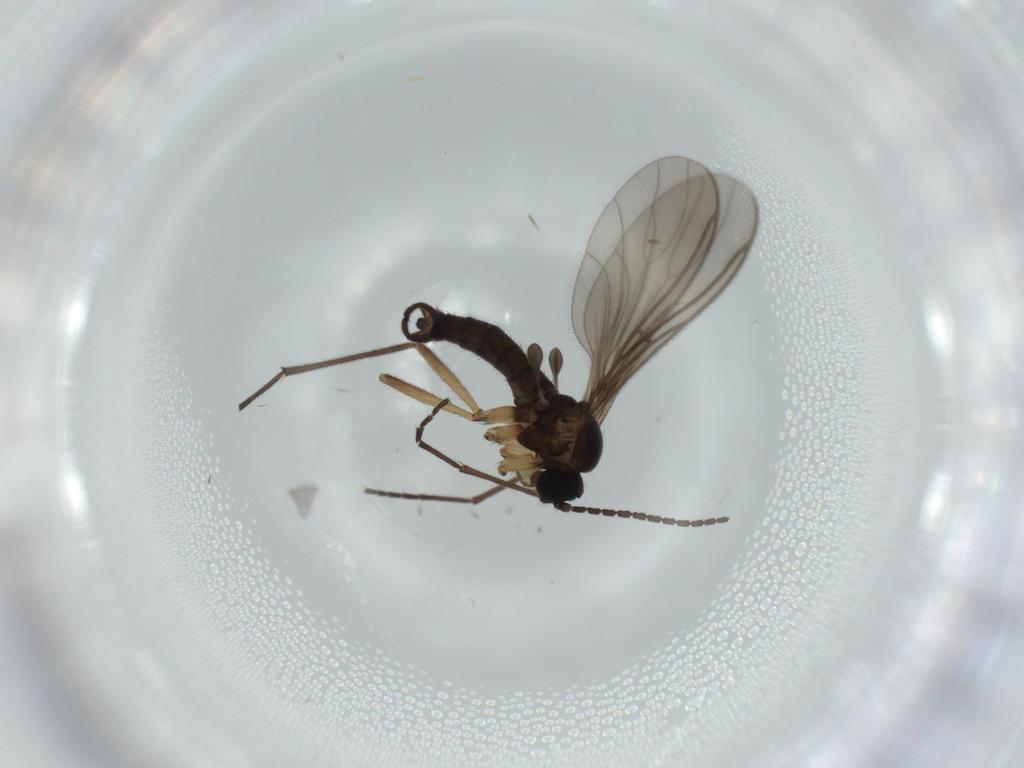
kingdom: Animalia
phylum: Arthropoda
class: Insecta
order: Diptera
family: Sciaridae
